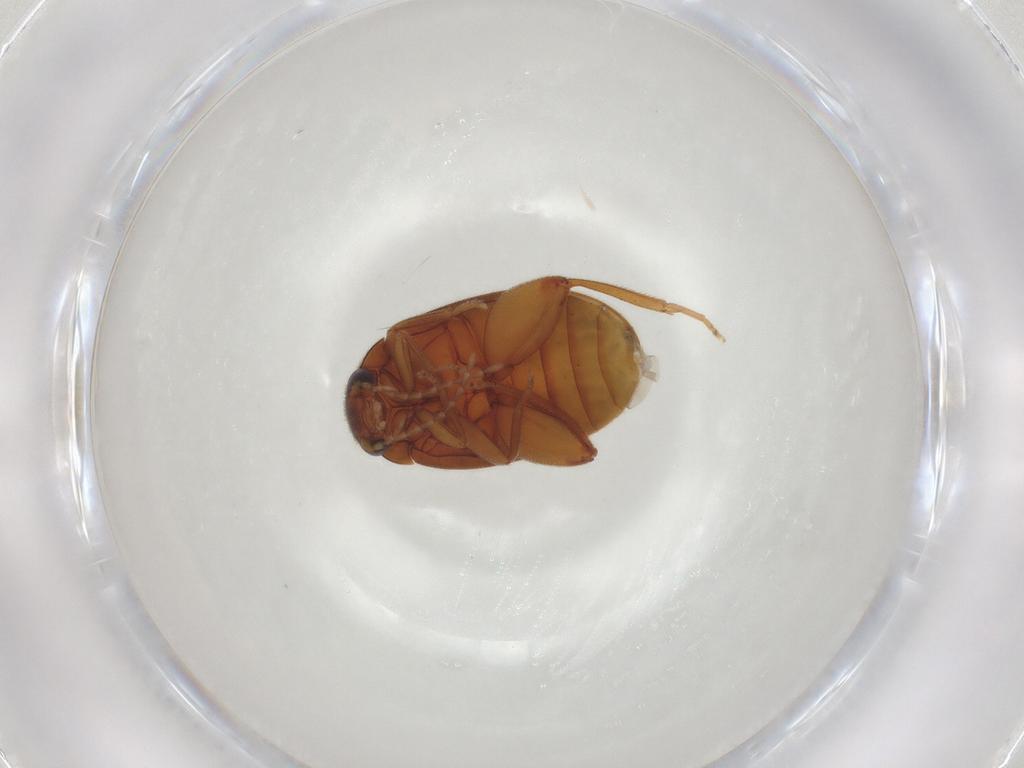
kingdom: Animalia
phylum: Arthropoda
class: Insecta
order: Coleoptera
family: Scirtidae
